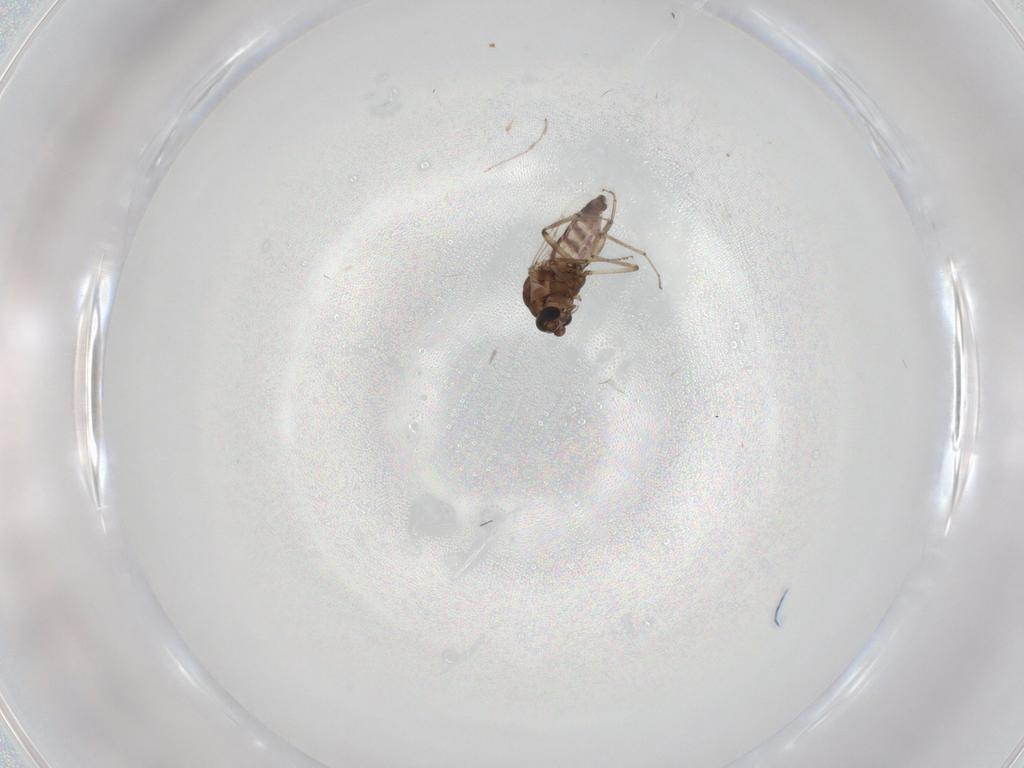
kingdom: Animalia
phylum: Arthropoda
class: Insecta
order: Diptera
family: Ceratopogonidae
